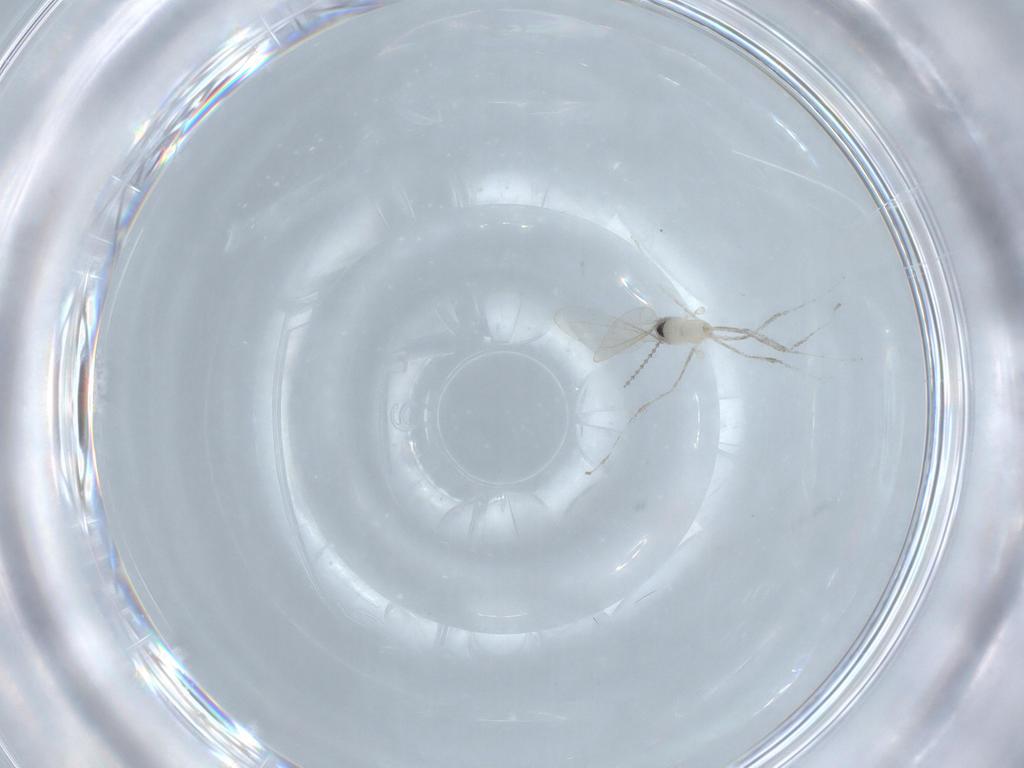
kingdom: Animalia
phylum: Arthropoda
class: Insecta
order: Diptera
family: Cecidomyiidae
